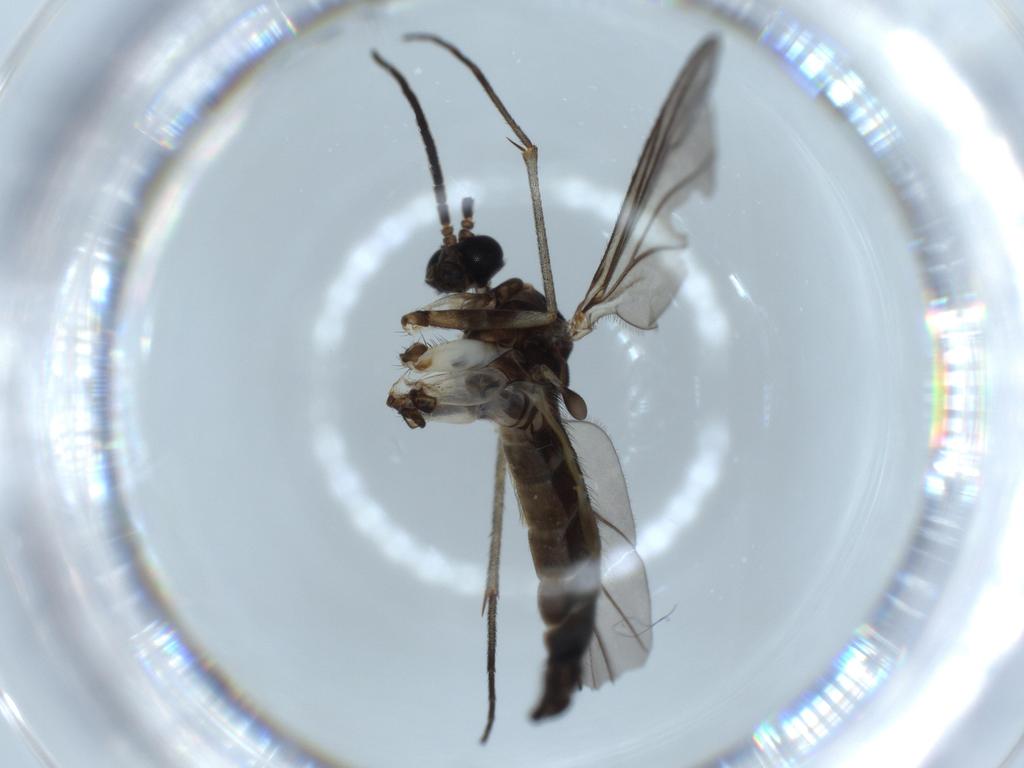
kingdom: Animalia
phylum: Arthropoda
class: Insecta
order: Diptera
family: Sciaridae
